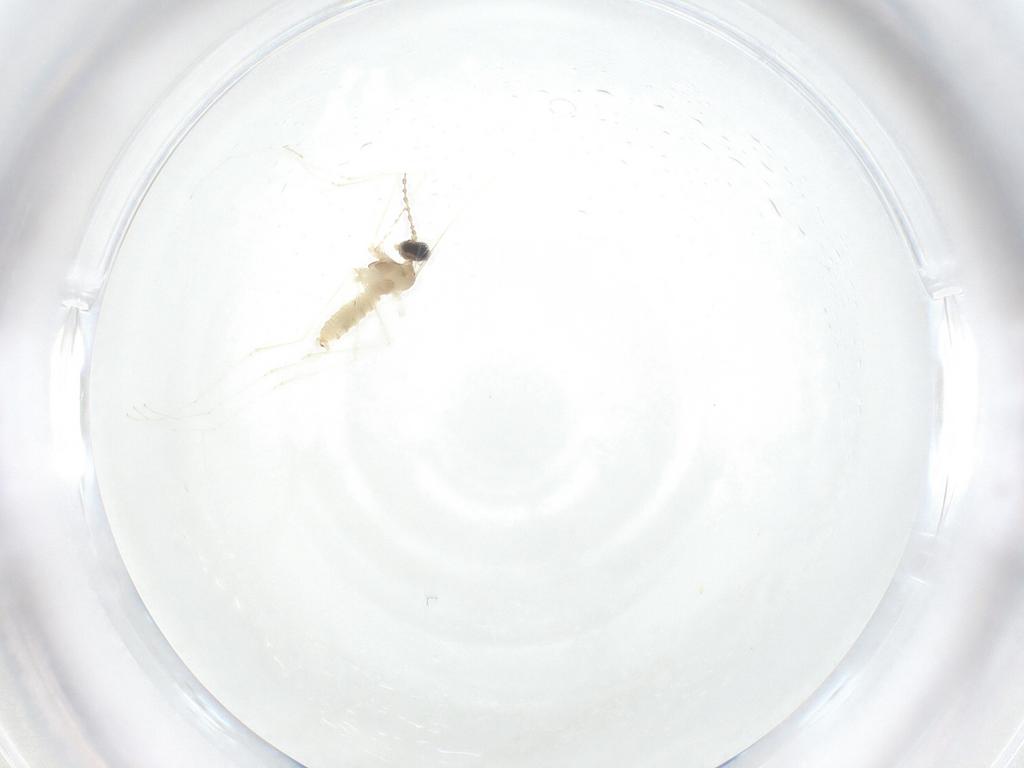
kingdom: Animalia
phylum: Arthropoda
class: Insecta
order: Diptera
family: Cecidomyiidae
